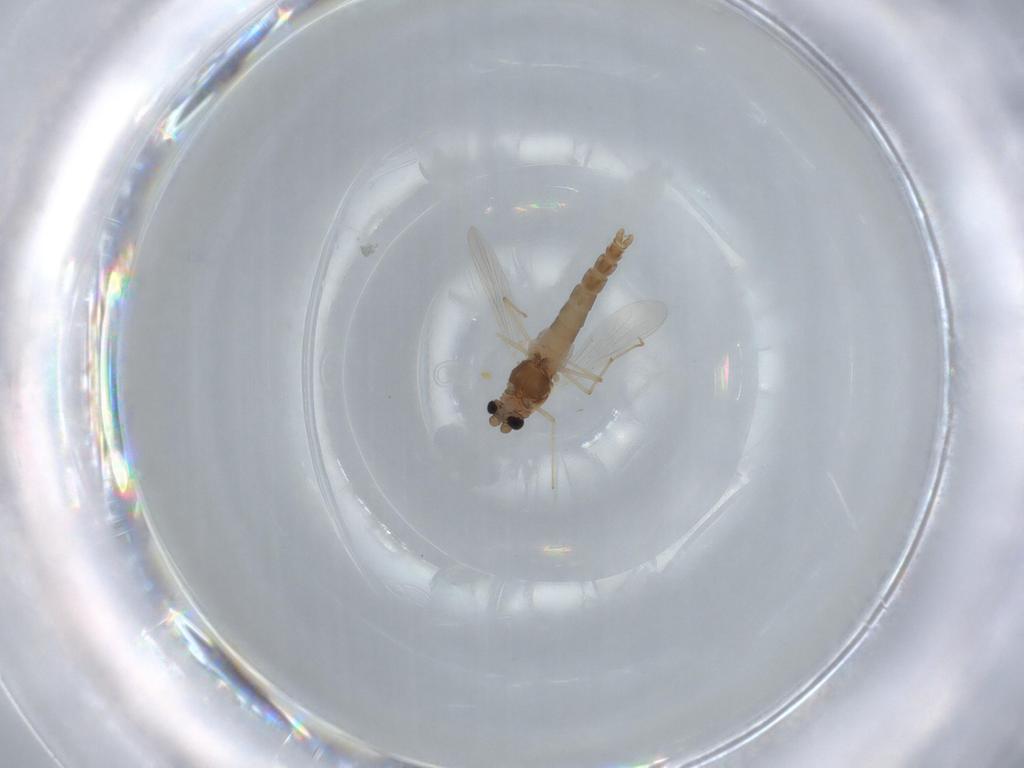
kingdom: Animalia
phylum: Arthropoda
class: Insecta
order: Diptera
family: Chironomidae
